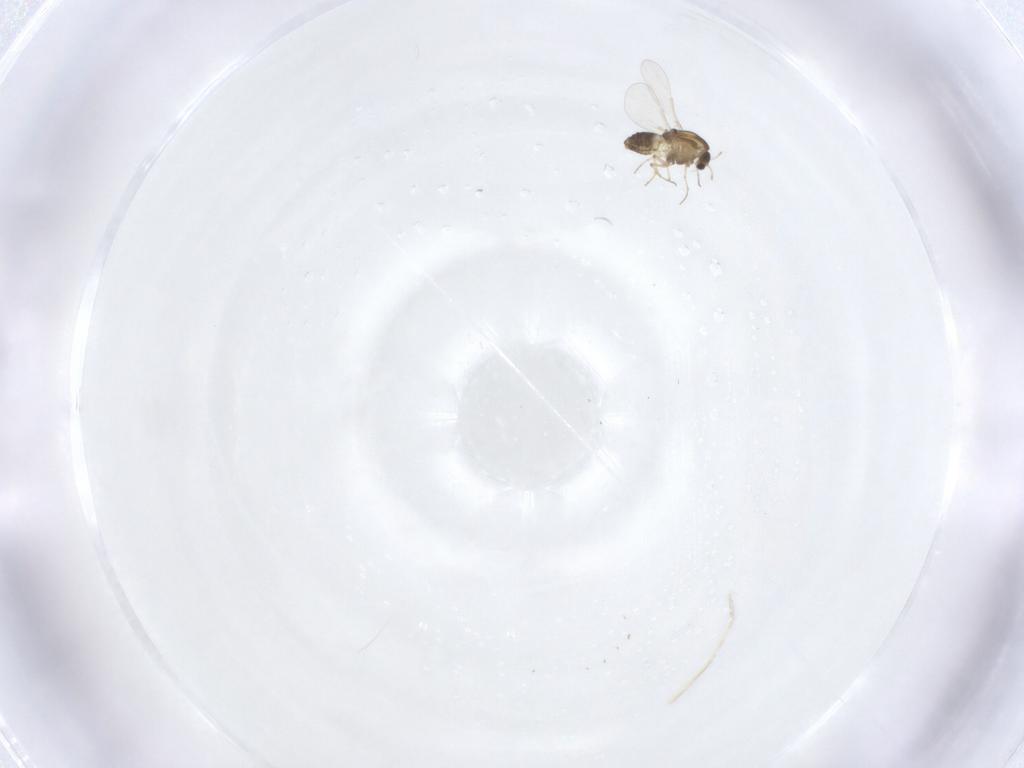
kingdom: Animalia
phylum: Arthropoda
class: Insecta
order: Diptera
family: Chironomidae
